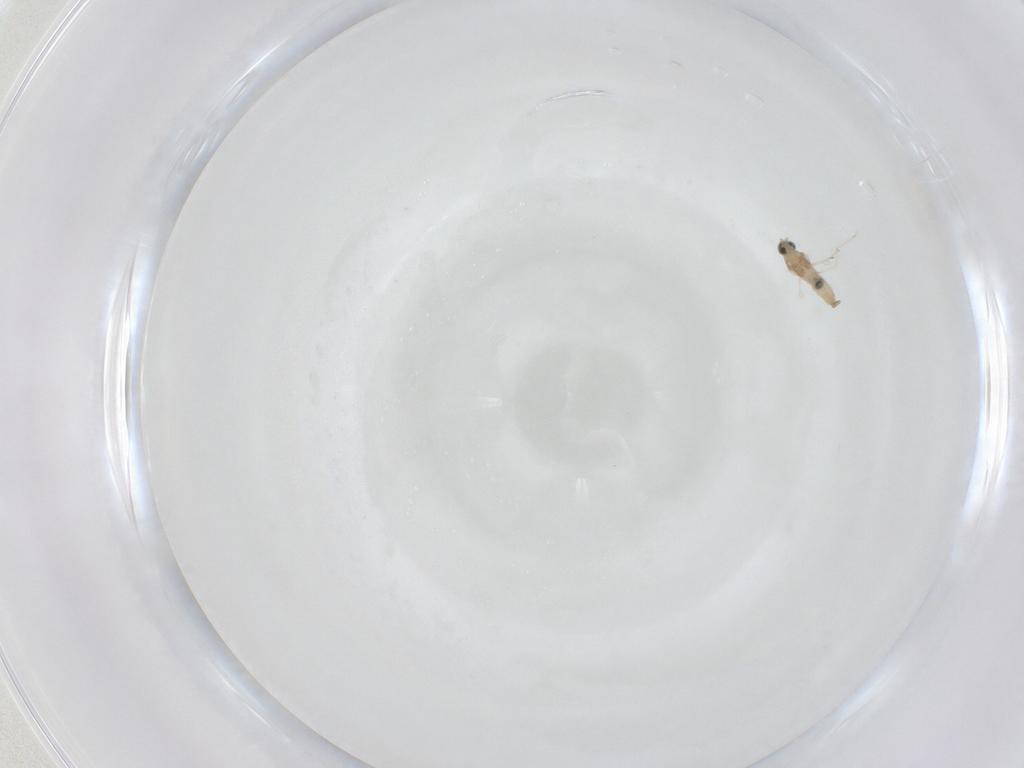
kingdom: Animalia
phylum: Arthropoda
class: Insecta
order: Diptera
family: Cecidomyiidae
